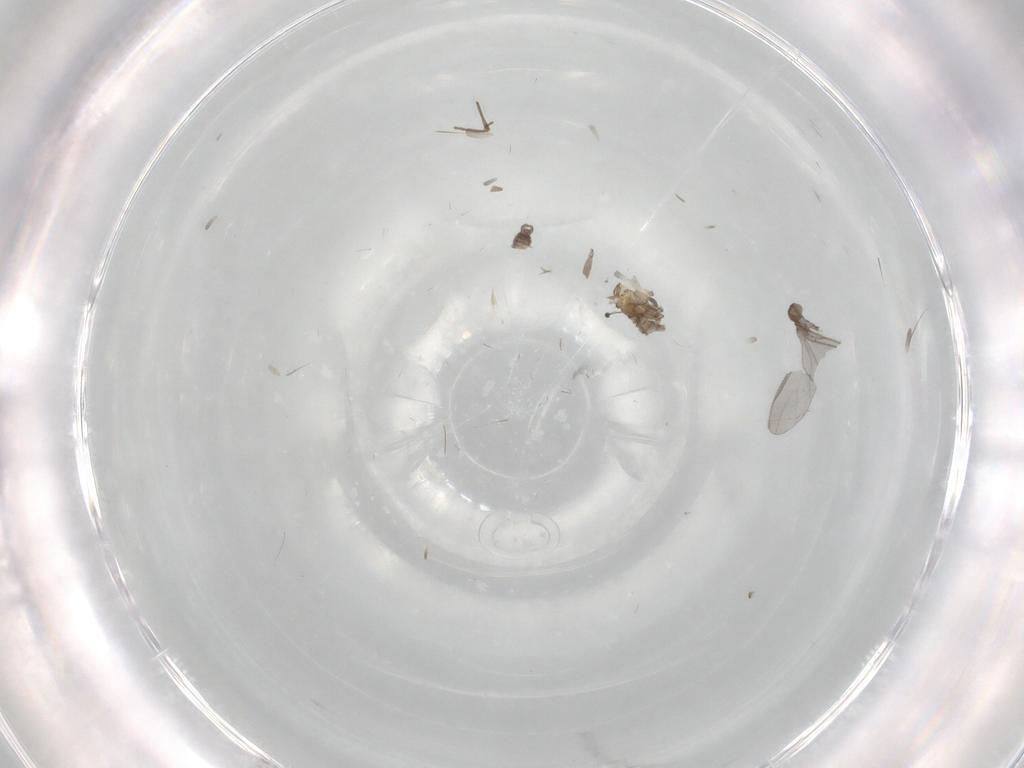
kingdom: Animalia
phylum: Arthropoda
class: Insecta
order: Diptera
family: Sciaridae
